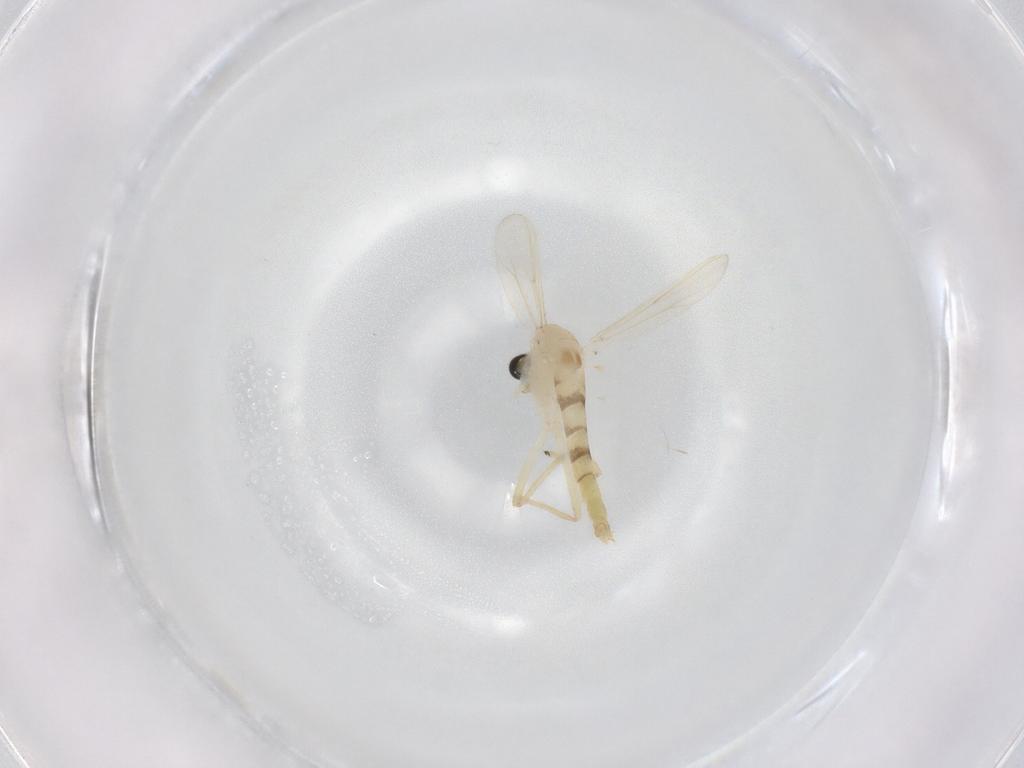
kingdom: Animalia
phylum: Arthropoda
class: Insecta
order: Diptera
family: Chironomidae
